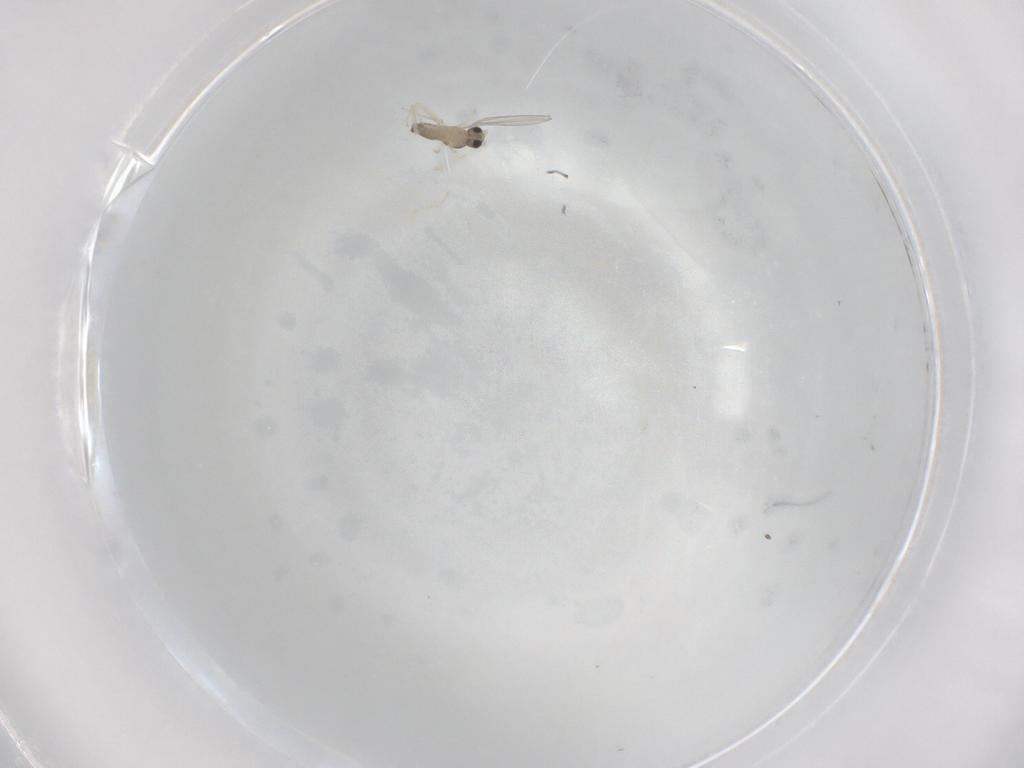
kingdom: Animalia
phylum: Arthropoda
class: Insecta
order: Diptera
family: Cecidomyiidae
